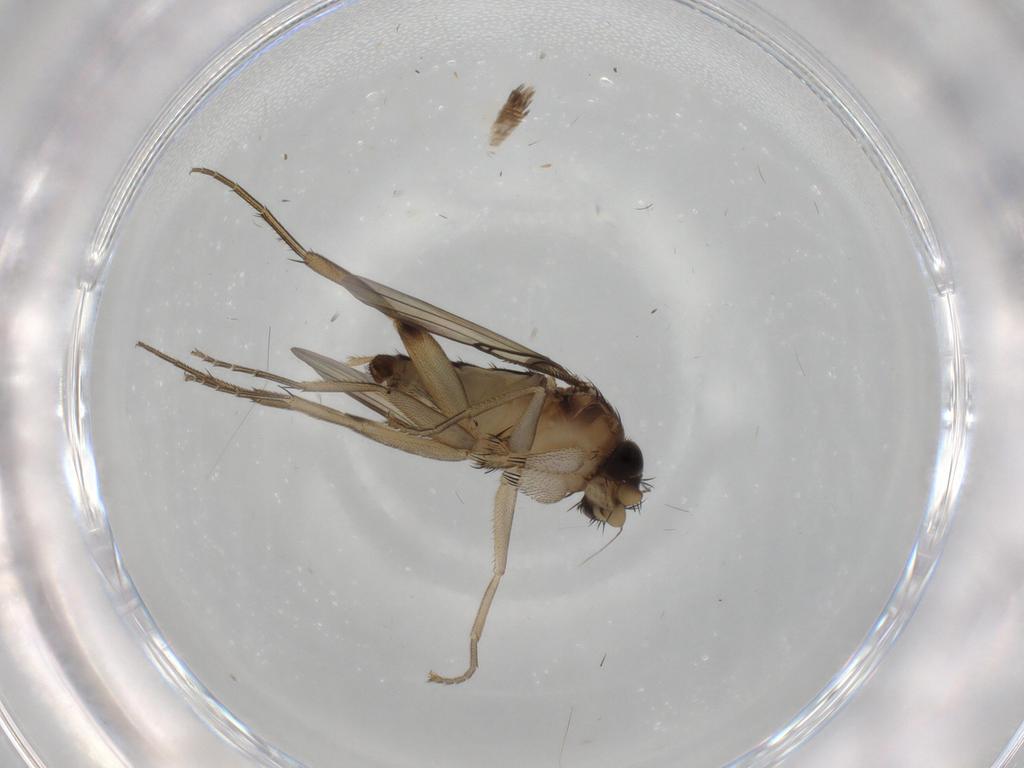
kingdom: Animalia
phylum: Arthropoda
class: Insecta
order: Diptera
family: Phoridae
